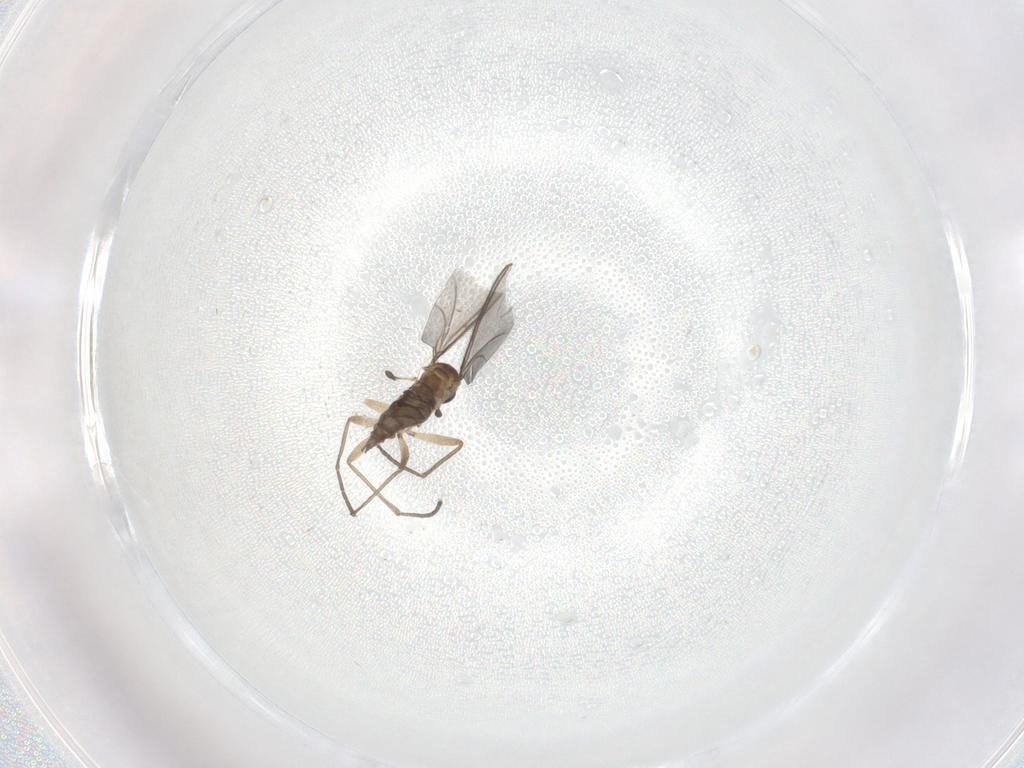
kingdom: Animalia
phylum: Arthropoda
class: Insecta
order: Diptera
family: Sciaridae
